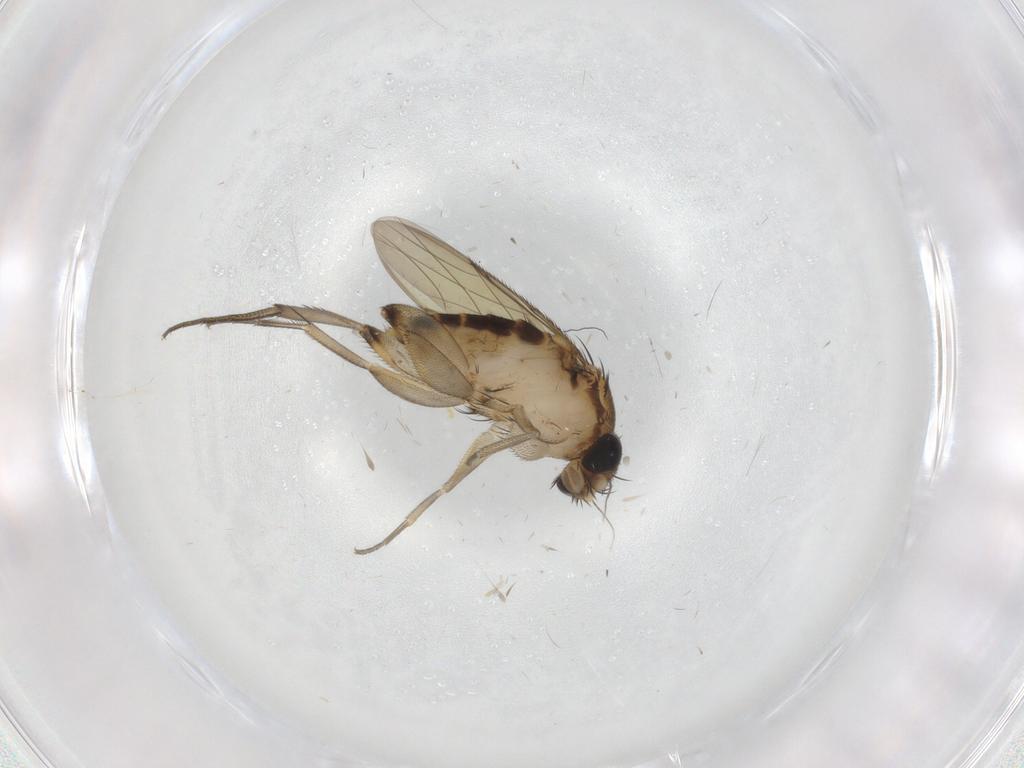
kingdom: Animalia
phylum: Arthropoda
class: Insecta
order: Diptera
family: Phoridae
